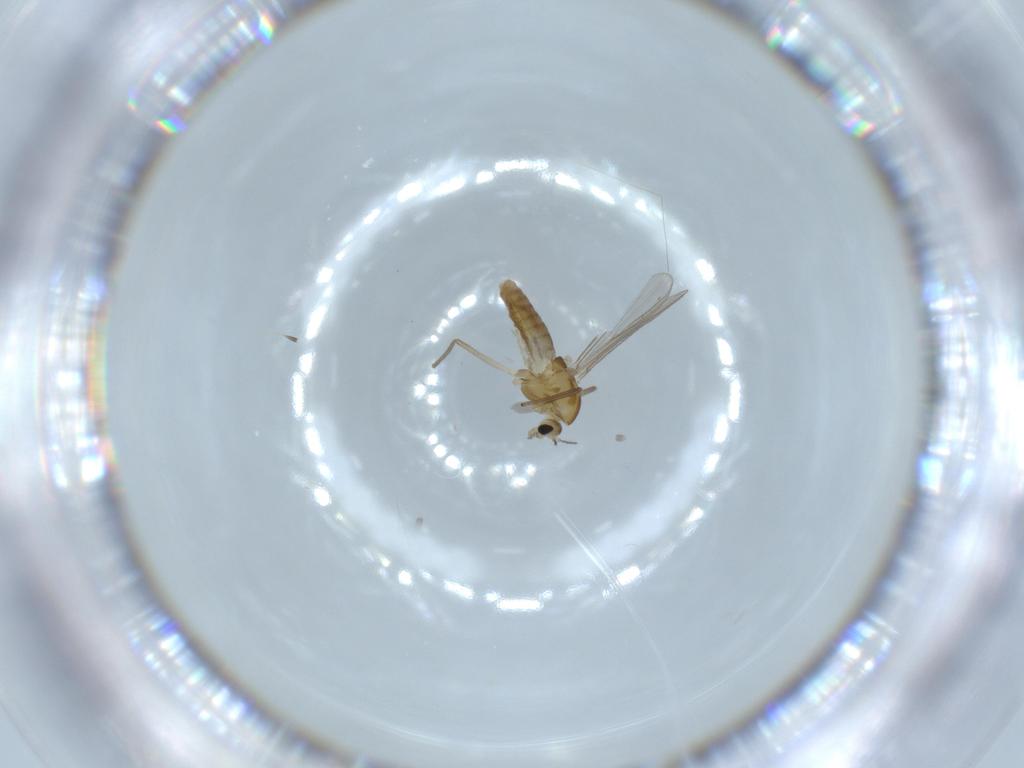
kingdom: Animalia
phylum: Arthropoda
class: Insecta
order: Diptera
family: Chironomidae
